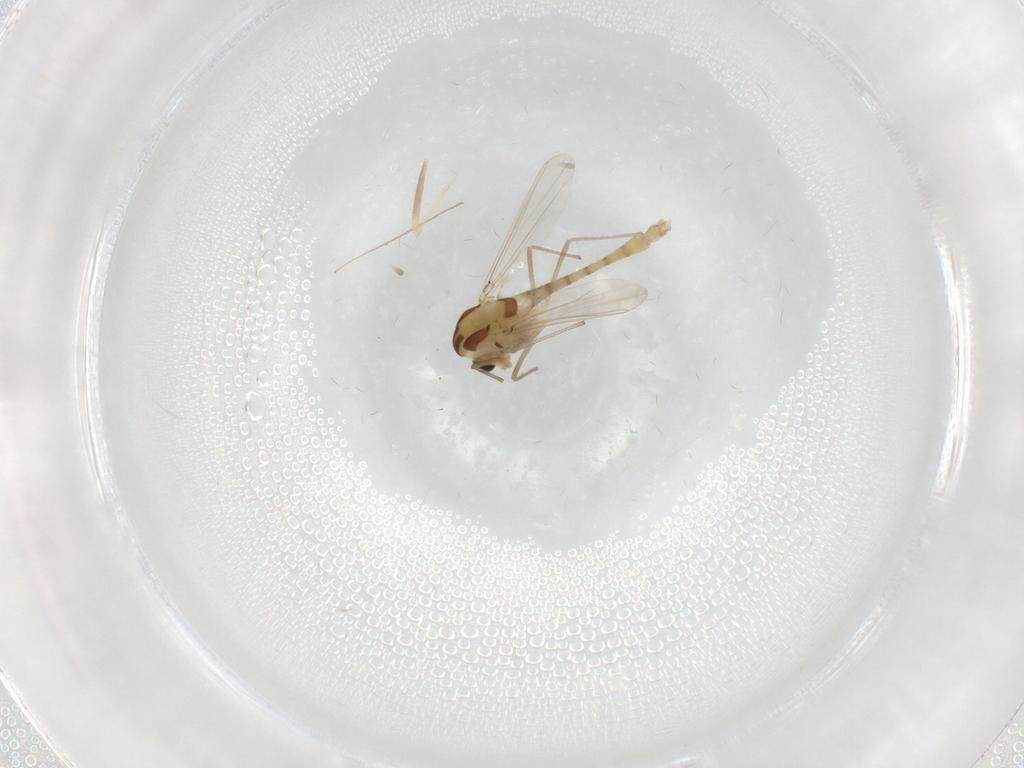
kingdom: Animalia
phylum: Arthropoda
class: Insecta
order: Diptera
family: Chironomidae
